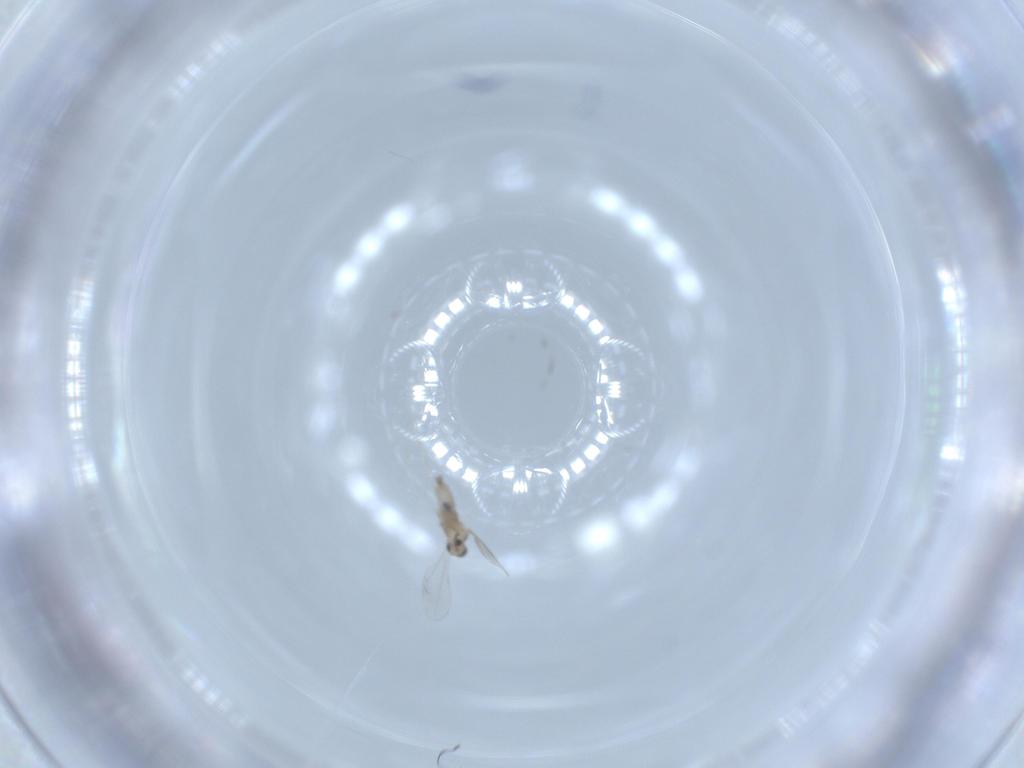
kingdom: Animalia
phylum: Arthropoda
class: Insecta
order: Diptera
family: Cecidomyiidae
